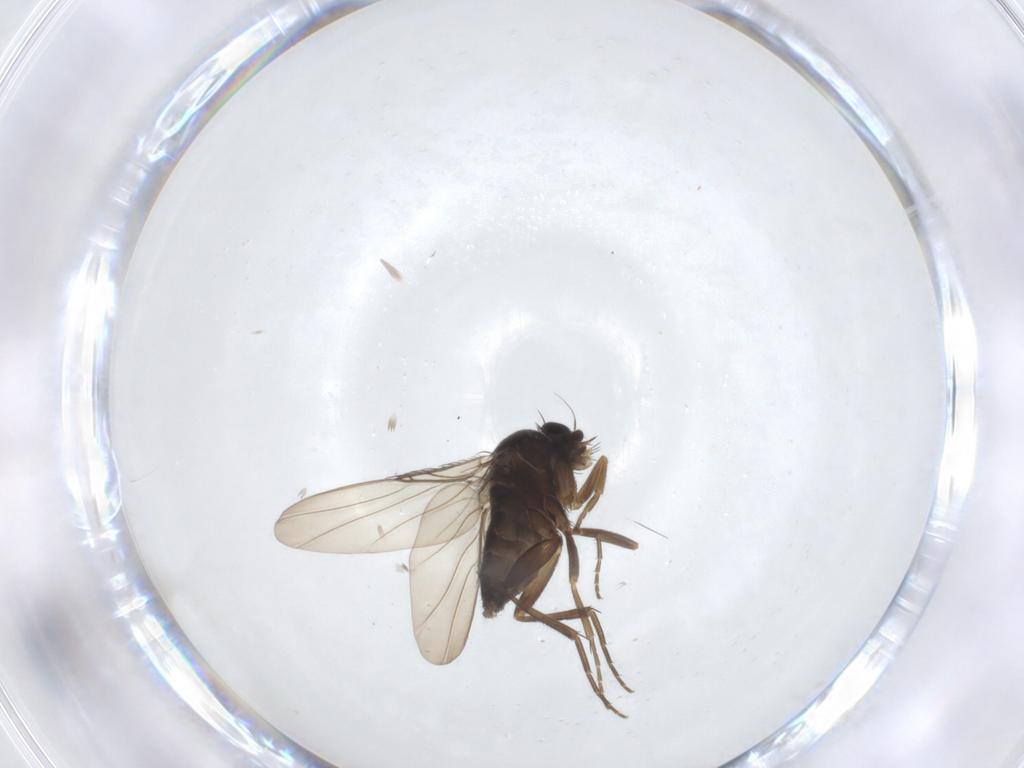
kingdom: Animalia
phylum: Arthropoda
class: Insecta
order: Diptera
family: Phoridae
